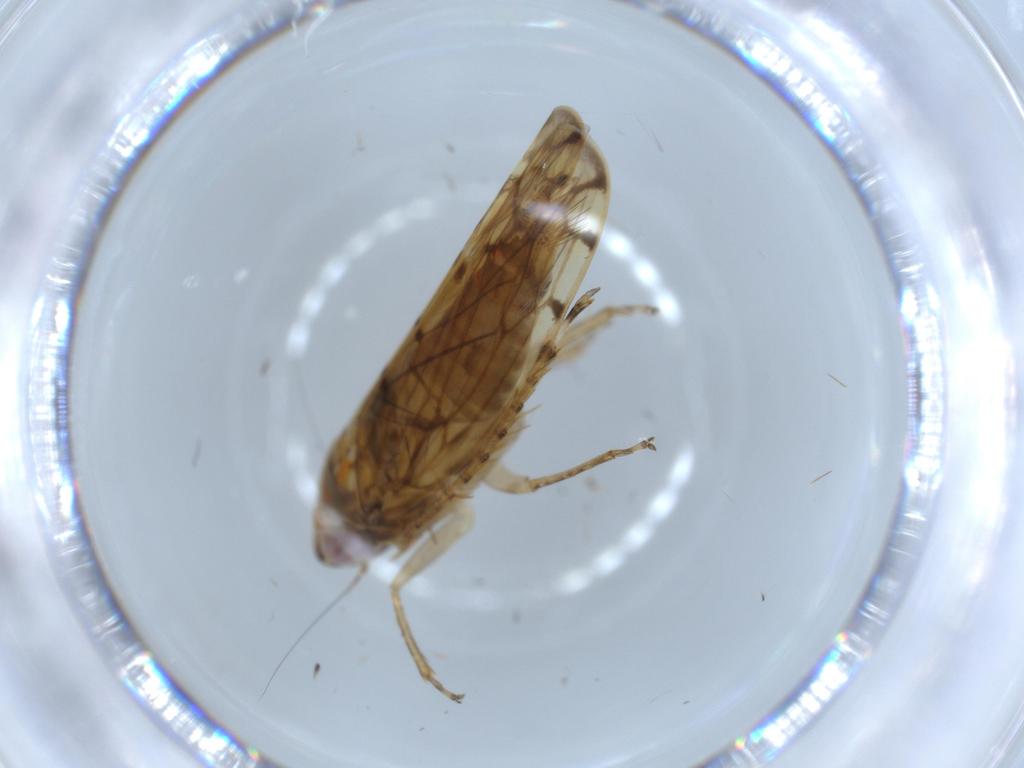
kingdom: Animalia
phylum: Arthropoda
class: Insecta
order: Hemiptera
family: Cicadellidae
